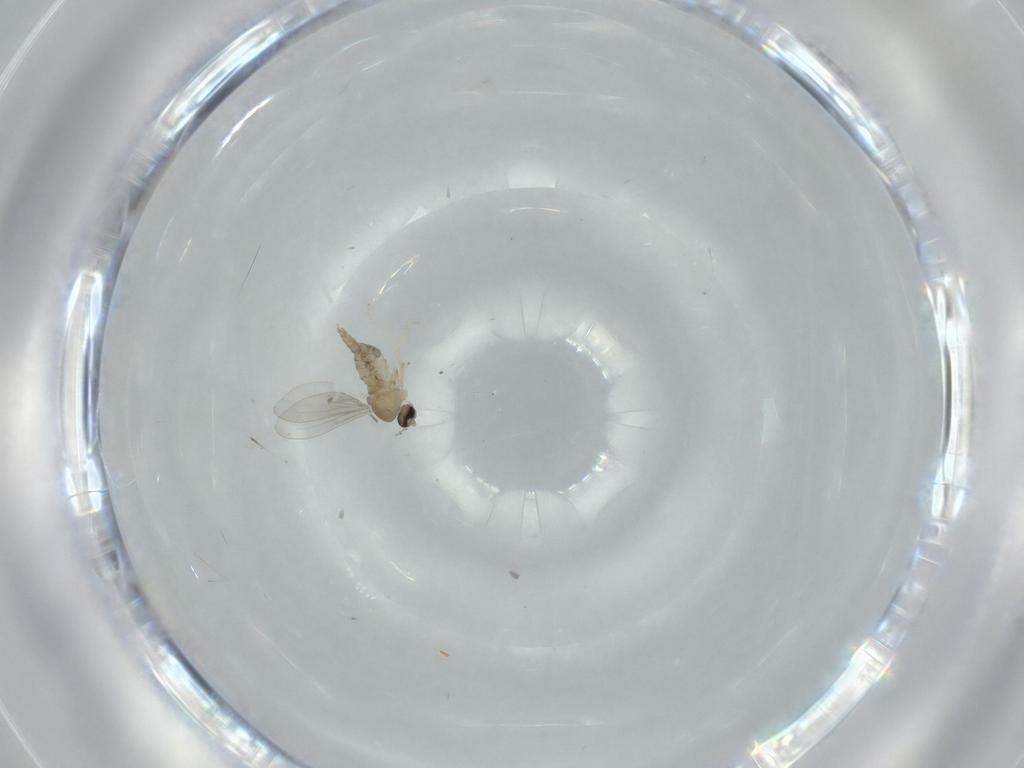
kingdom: Animalia
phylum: Arthropoda
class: Insecta
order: Diptera
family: Cecidomyiidae
